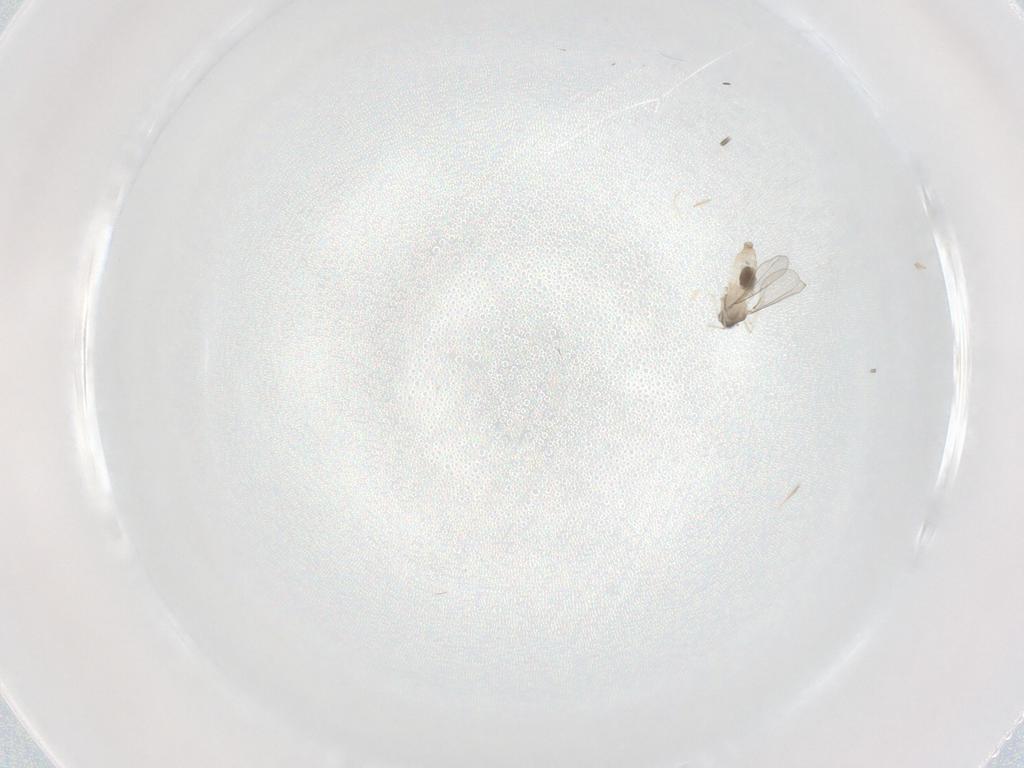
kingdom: Animalia
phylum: Arthropoda
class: Insecta
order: Diptera
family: Cecidomyiidae
